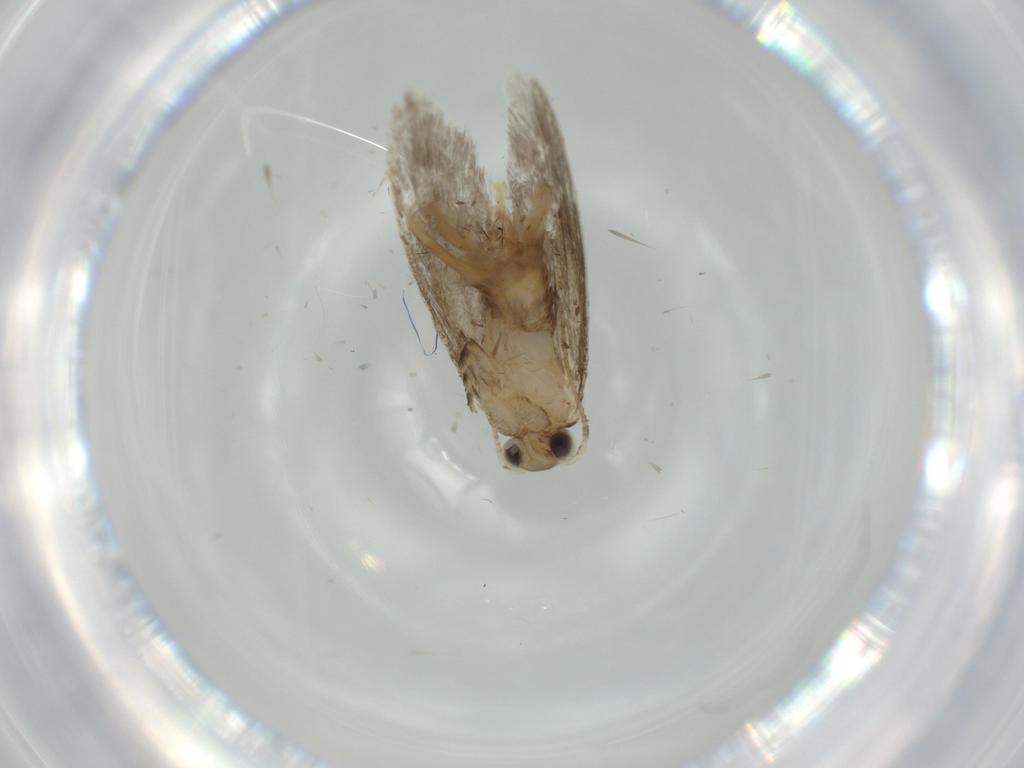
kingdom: Animalia
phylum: Arthropoda
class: Insecta
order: Lepidoptera
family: Tineidae
